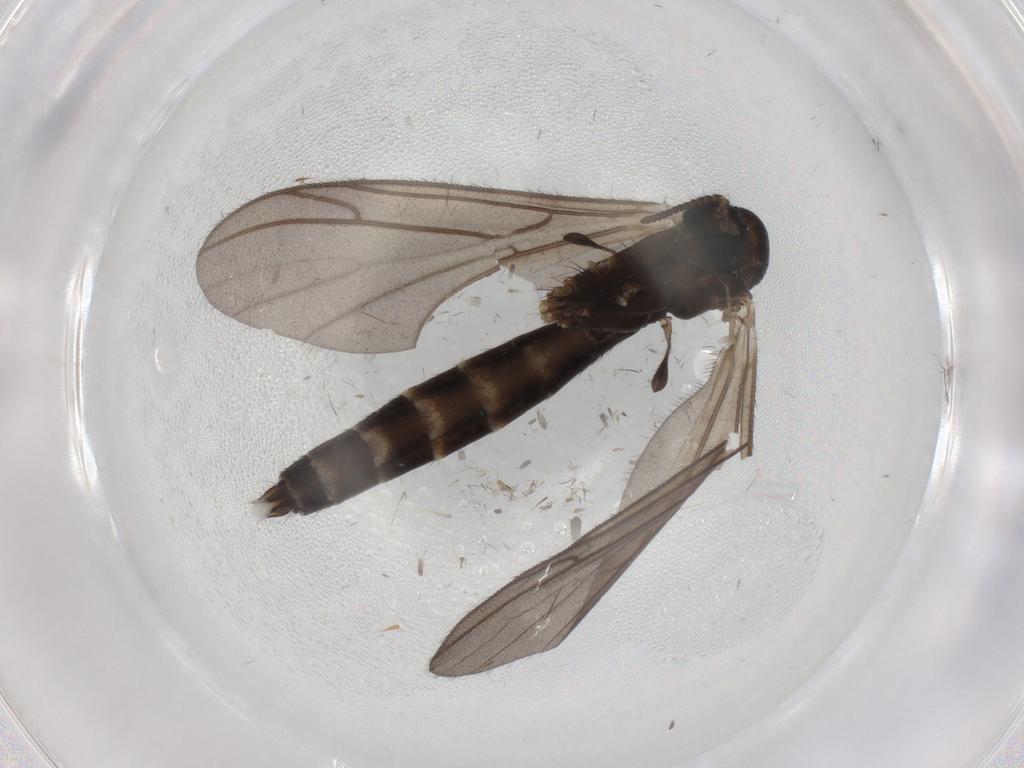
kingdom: Animalia
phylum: Arthropoda
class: Insecta
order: Diptera
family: Ditomyiidae
